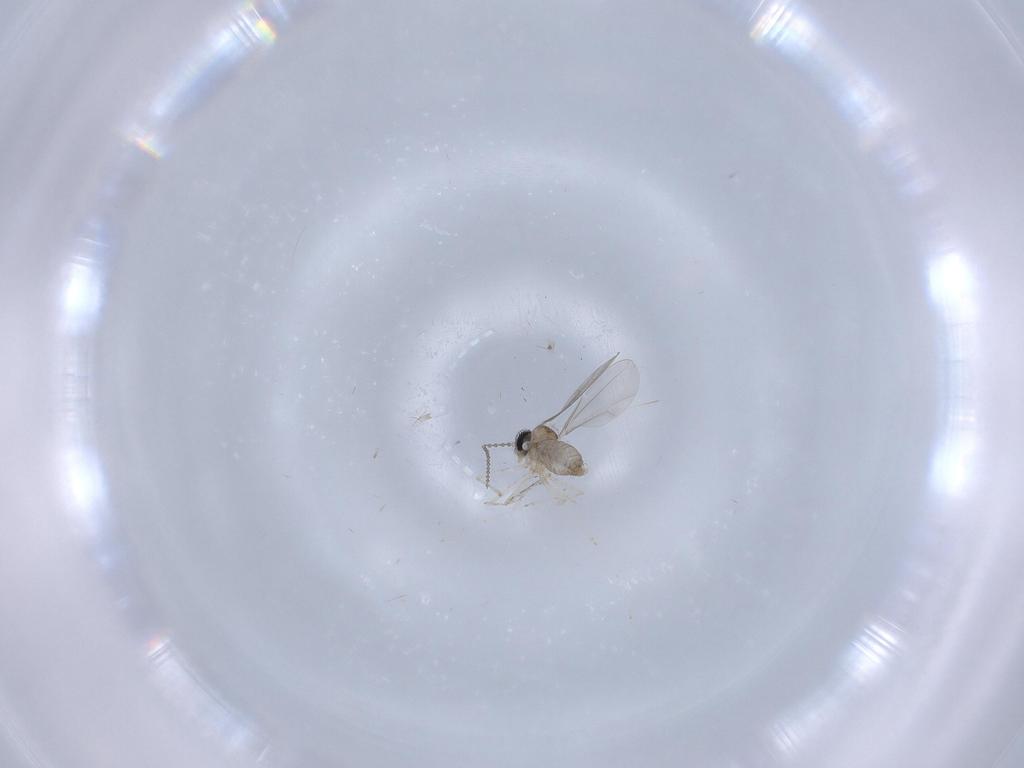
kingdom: Animalia
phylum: Arthropoda
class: Insecta
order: Diptera
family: Cecidomyiidae
